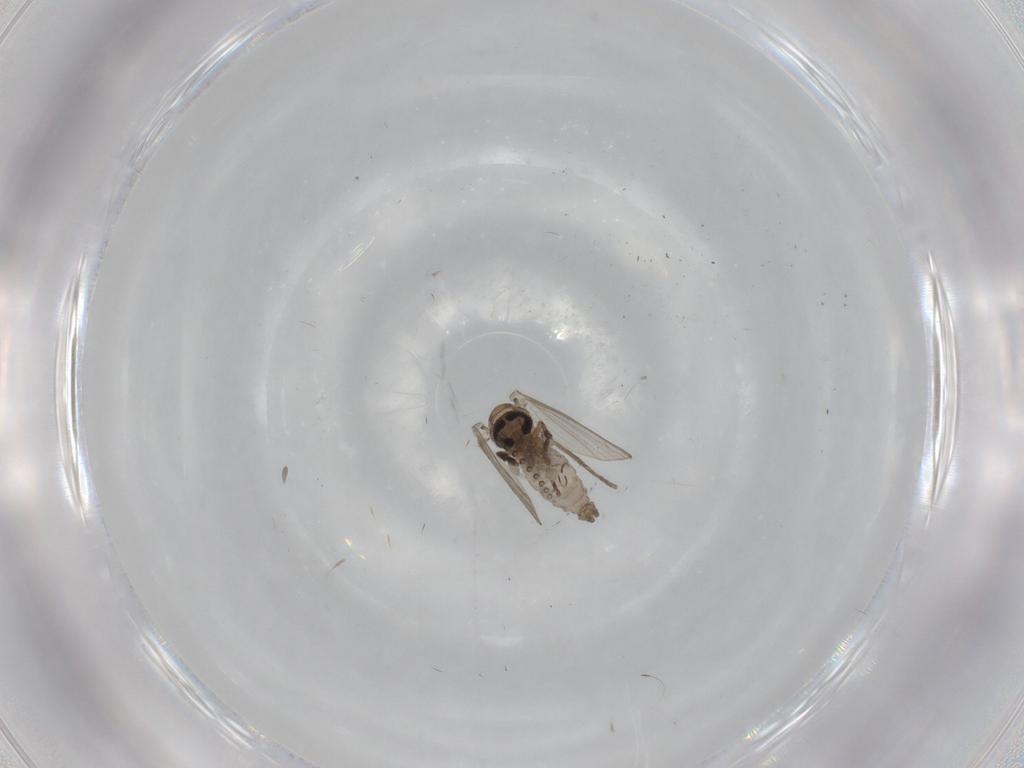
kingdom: Animalia
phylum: Arthropoda
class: Insecta
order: Diptera
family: Psychodidae
